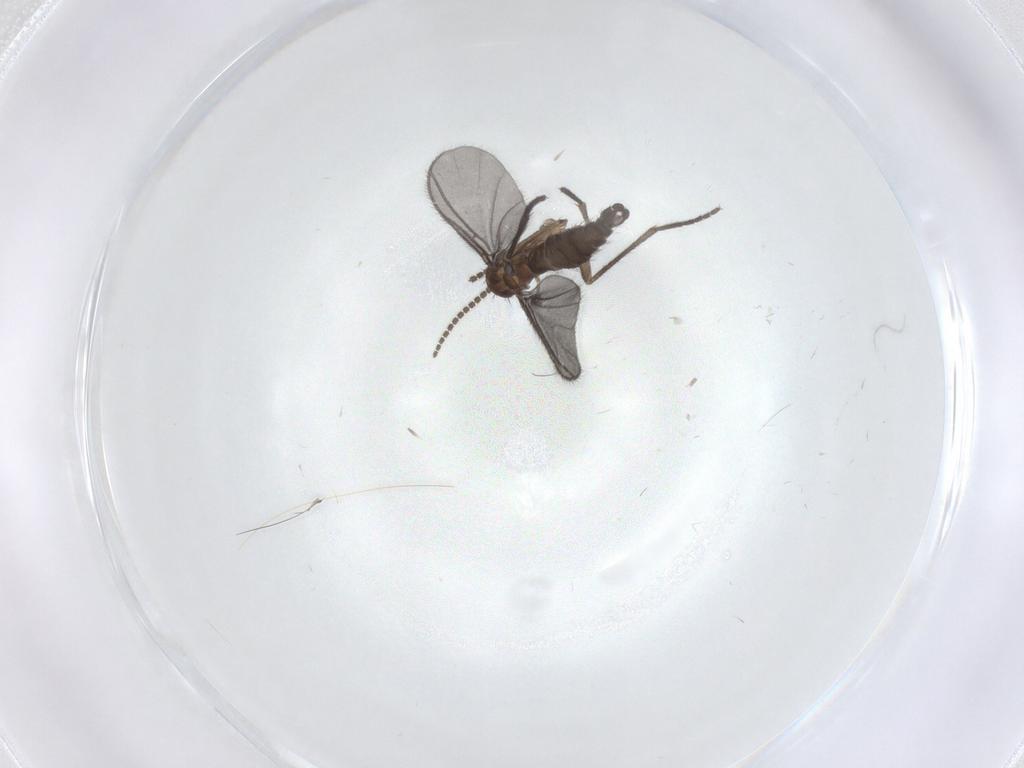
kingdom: Animalia
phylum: Arthropoda
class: Insecta
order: Diptera
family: Sciaridae
